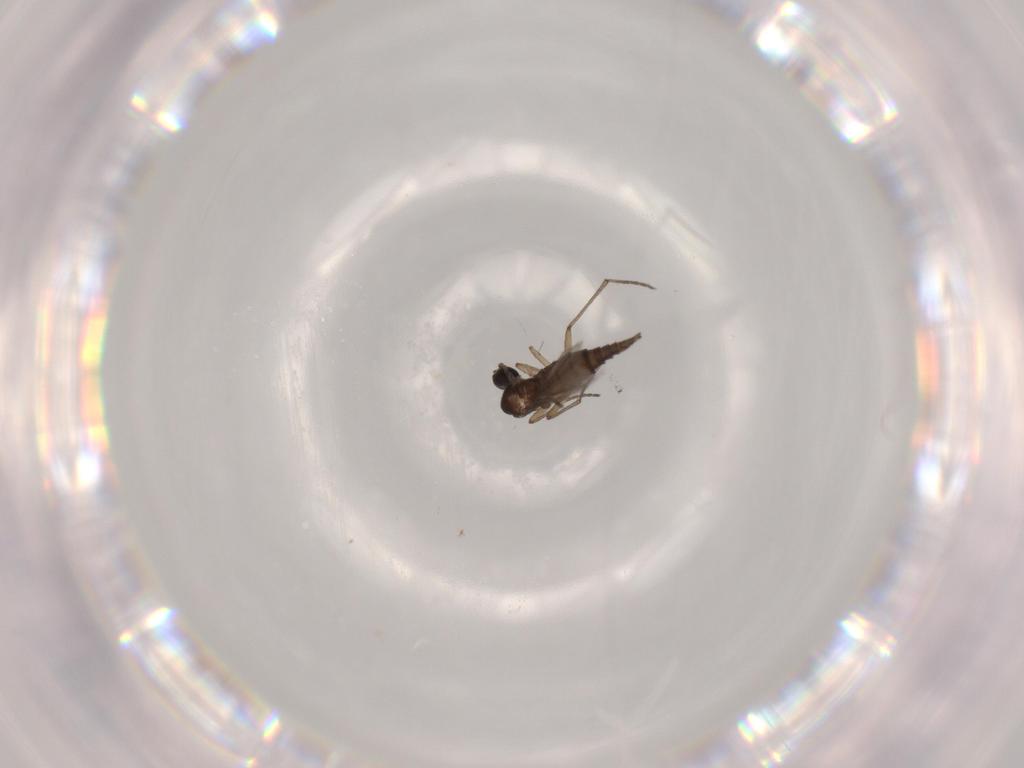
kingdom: Animalia
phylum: Arthropoda
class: Insecta
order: Diptera
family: Sciaridae
